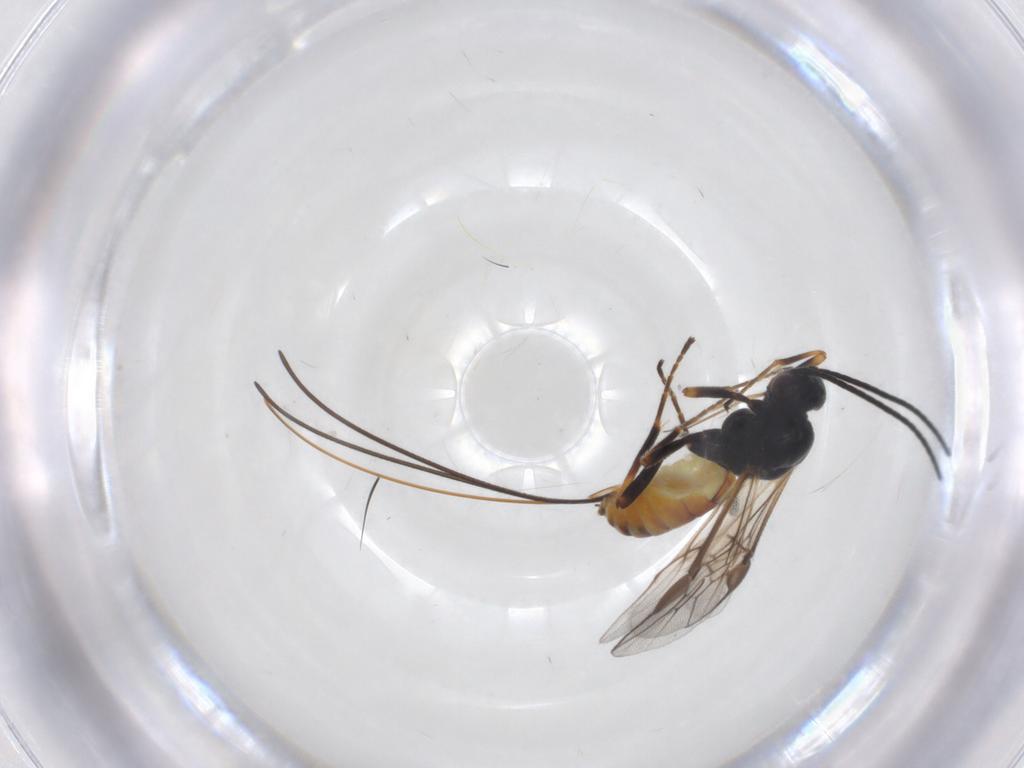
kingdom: Animalia
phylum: Arthropoda
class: Insecta
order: Hymenoptera
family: Braconidae
